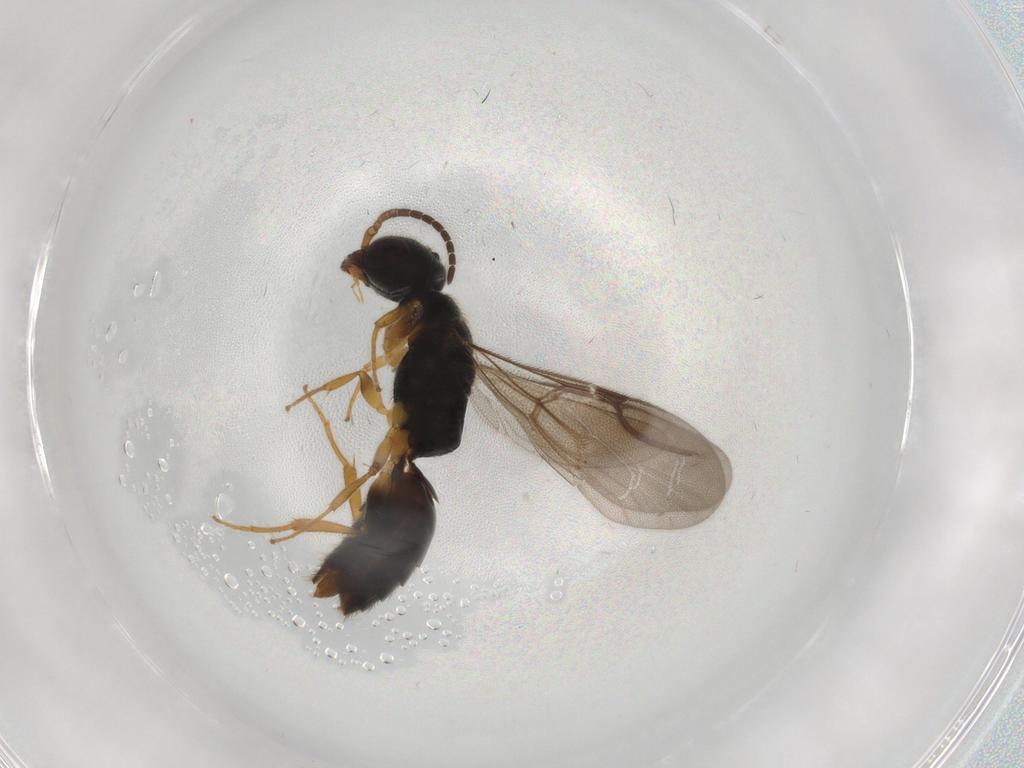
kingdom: Animalia
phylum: Arthropoda
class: Insecta
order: Hymenoptera
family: Bethylidae
